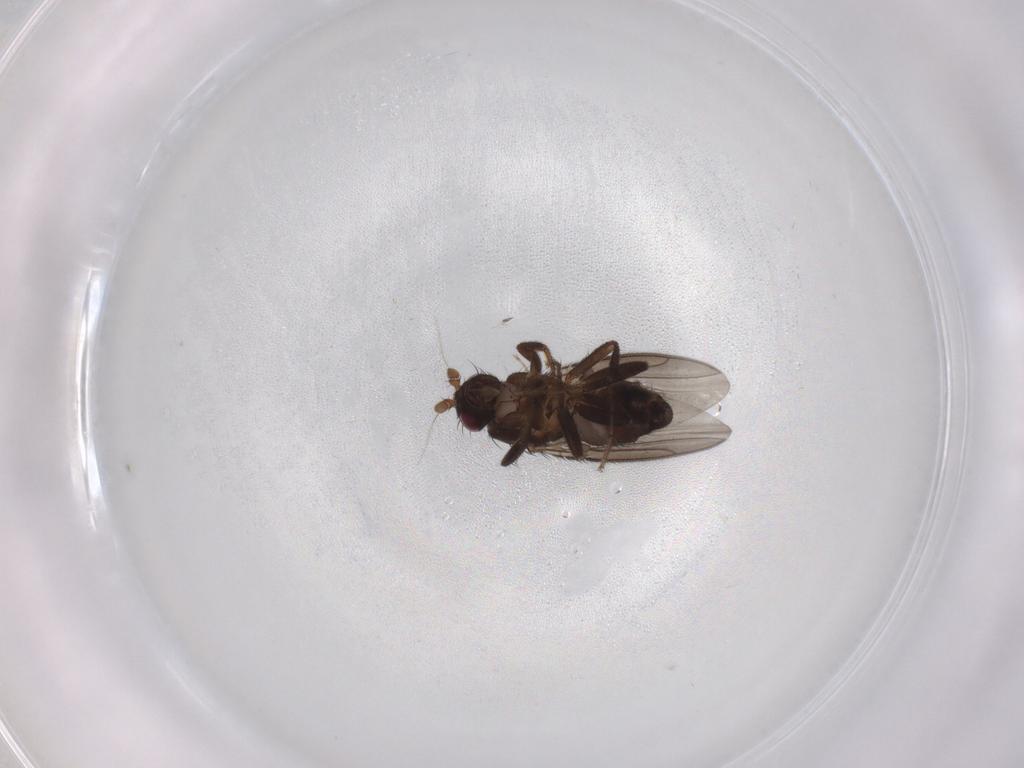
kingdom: Animalia
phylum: Arthropoda
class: Insecta
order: Diptera
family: Sphaeroceridae
